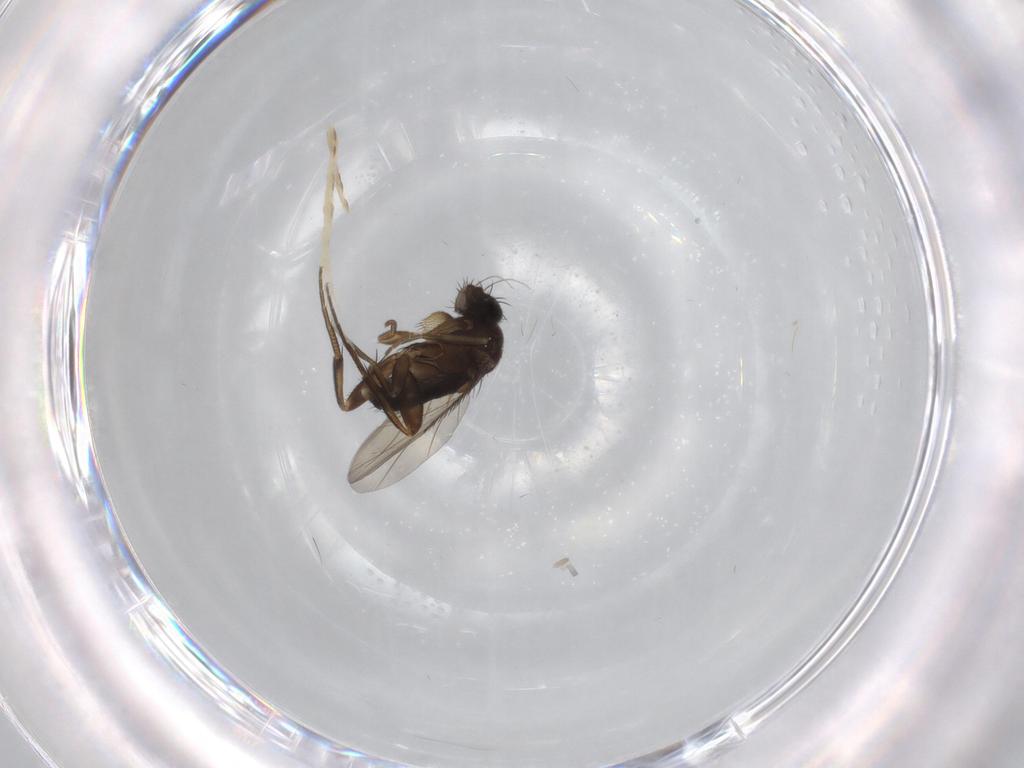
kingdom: Animalia
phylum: Arthropoda
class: Insecta
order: Diptera
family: Phoridae
